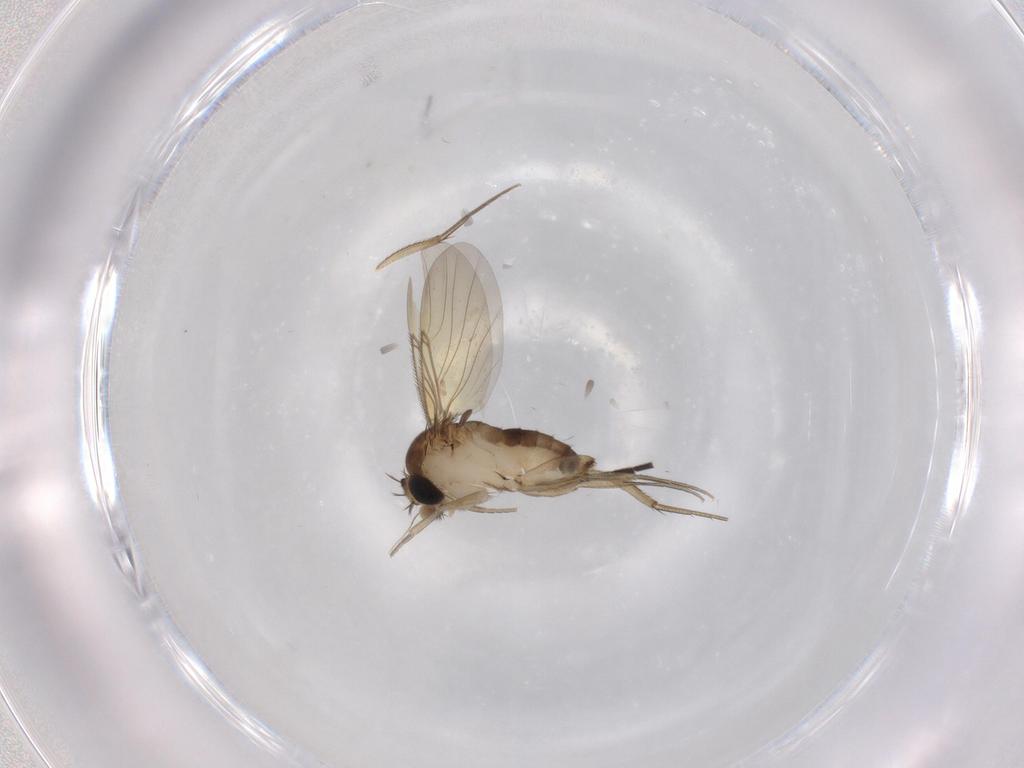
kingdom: Animalia
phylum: Arthropoda
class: Insecta
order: Diptera
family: Phoridae
